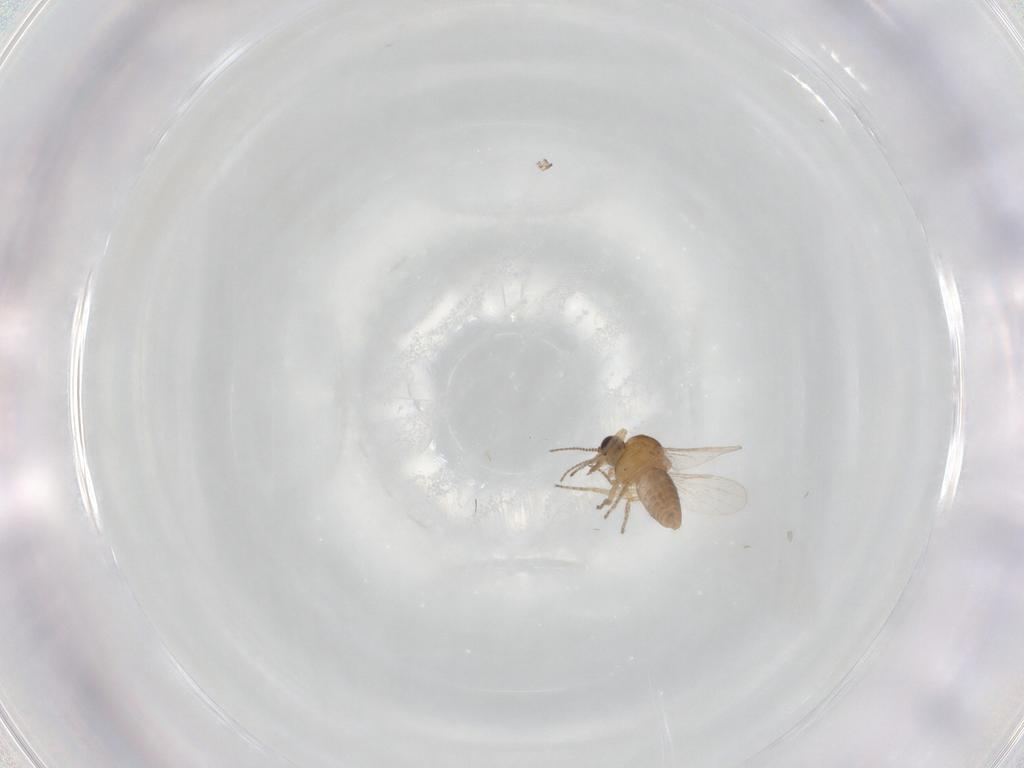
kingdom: Animalia
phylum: Arthropoda
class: Insecta
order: Diptera
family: Ceratopogonidae
